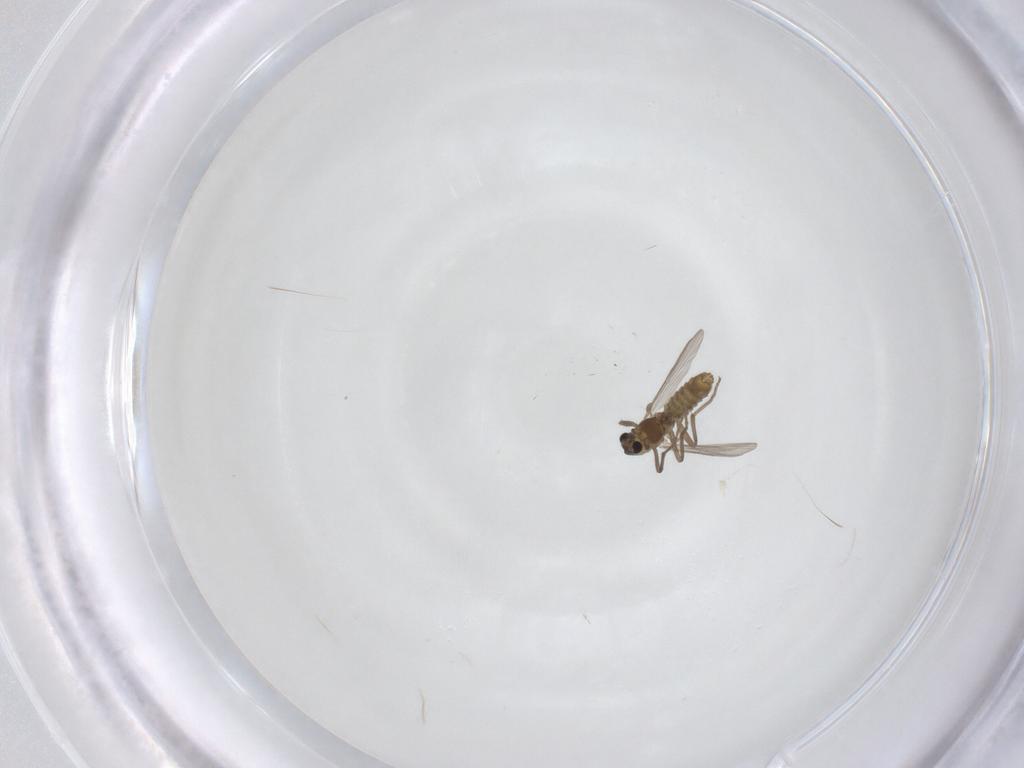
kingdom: Animalia
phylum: Arthropoda
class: Insecta
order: Diptera
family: Chironomidae
